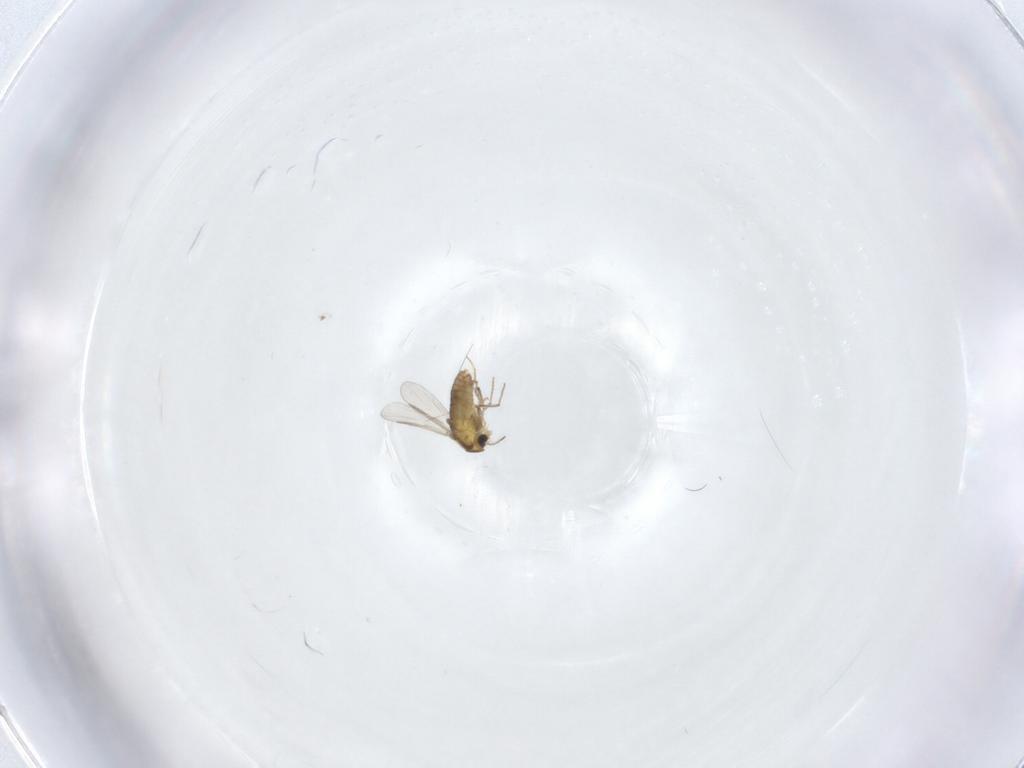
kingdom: Animalia
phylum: Arthropoda
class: Insecta
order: Diptera
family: Chironomidae
